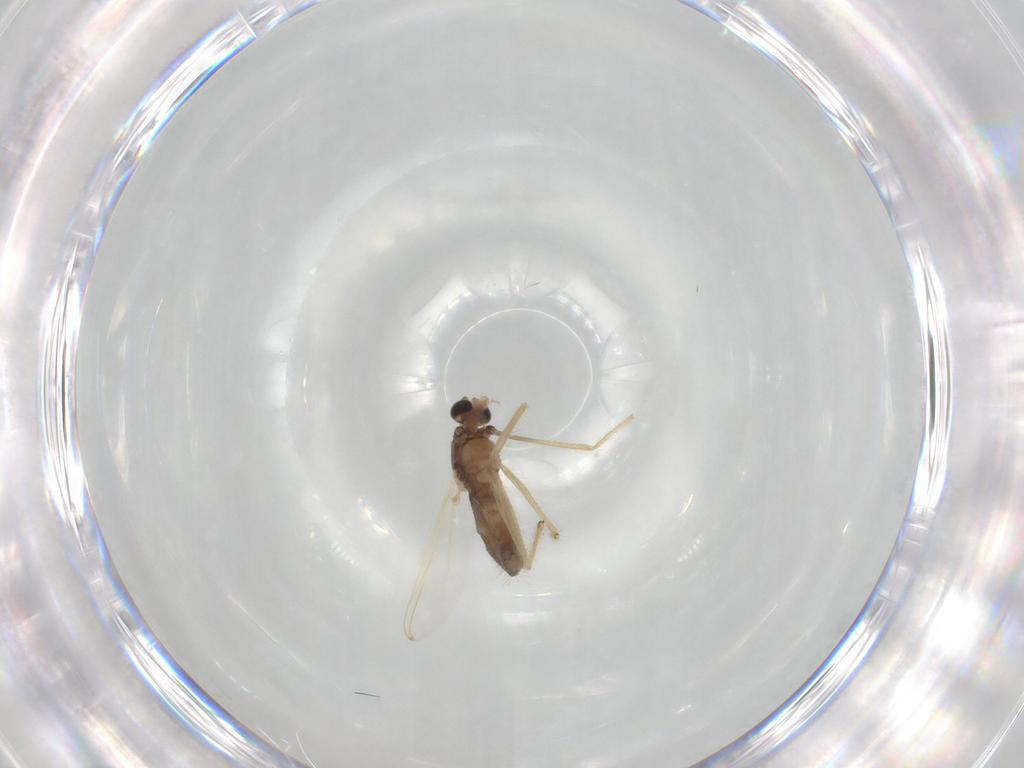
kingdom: Animalia
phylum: Arthropoda
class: Insecta
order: Diptera
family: Chironomidae
